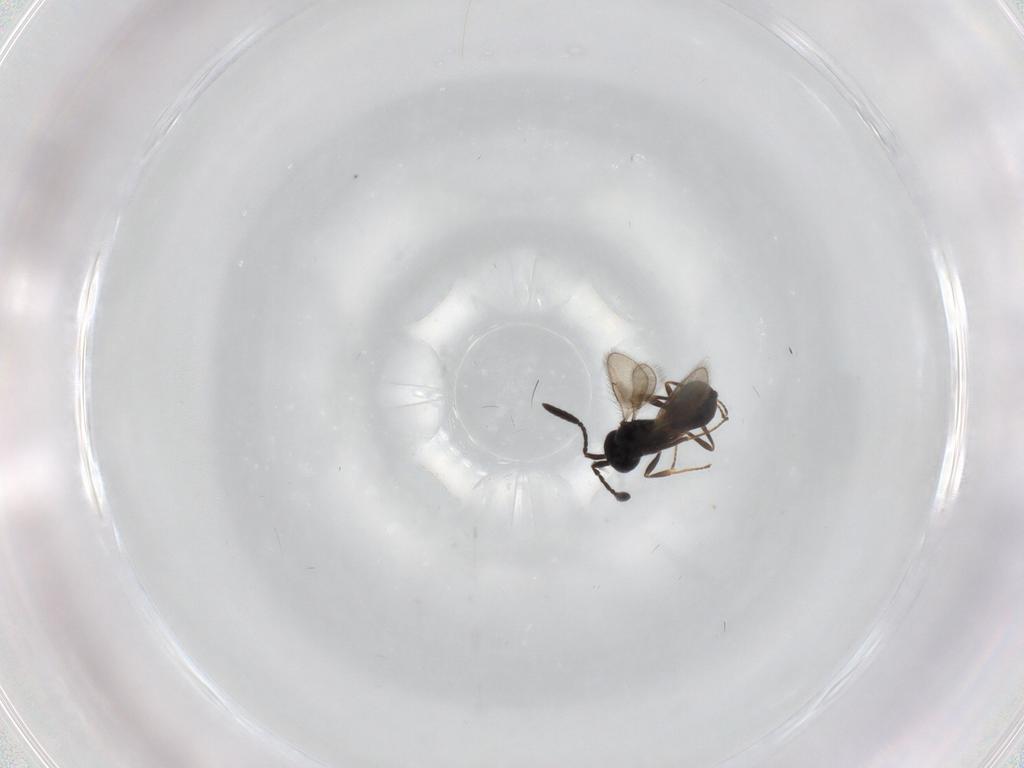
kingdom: Animalia
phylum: Arthropoda
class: Insecta
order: Hymenoptera
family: Scelionidae
